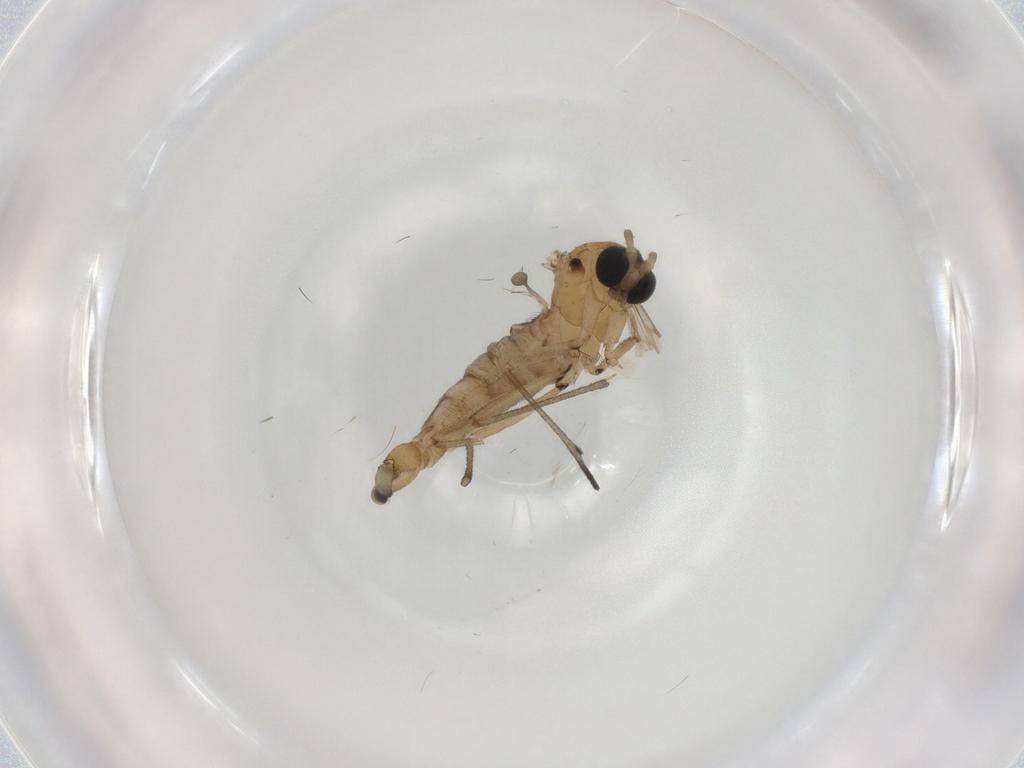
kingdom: Animalia
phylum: Arthropoda
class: Insecta
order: Diptera
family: Sciaridae
